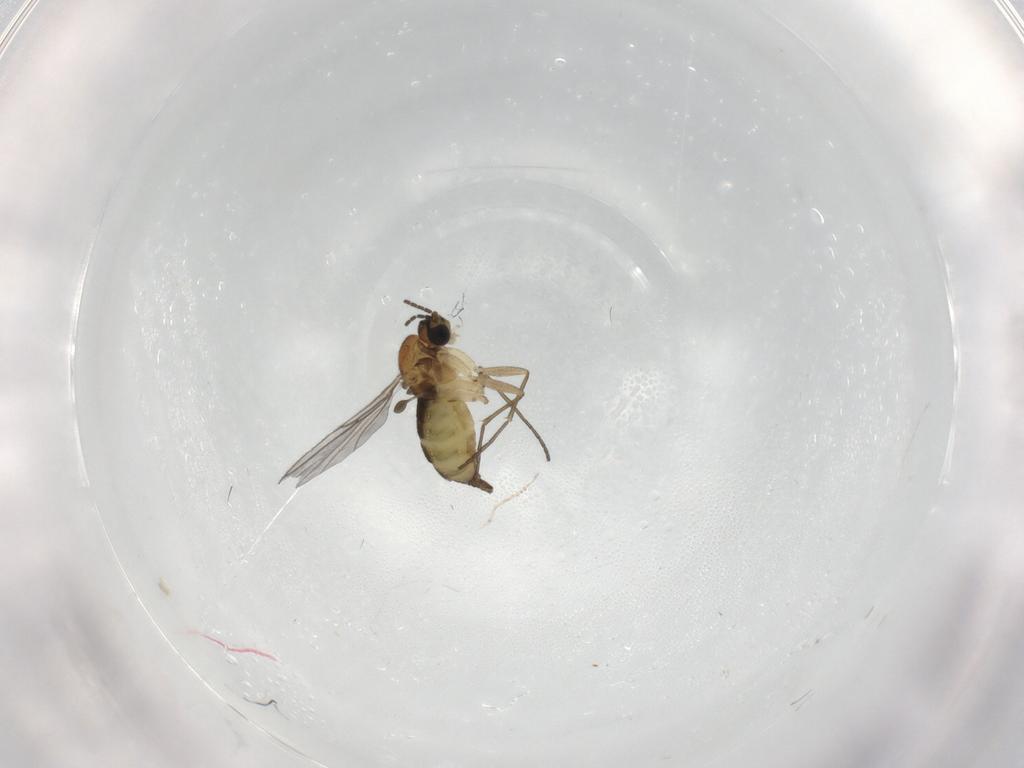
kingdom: Animalia
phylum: Arthropoda
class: Insecta
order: Diptera
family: Sciaridae
